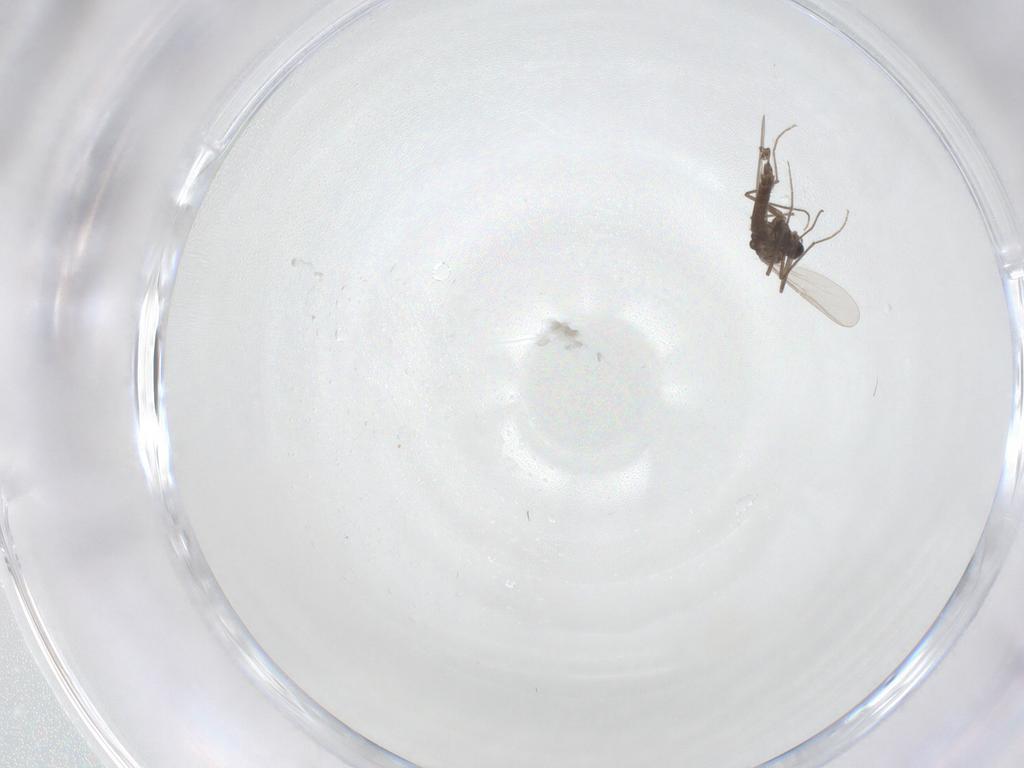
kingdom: Animalia
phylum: Arthropoda
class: Insecta
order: Diptera
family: Chironomidae
